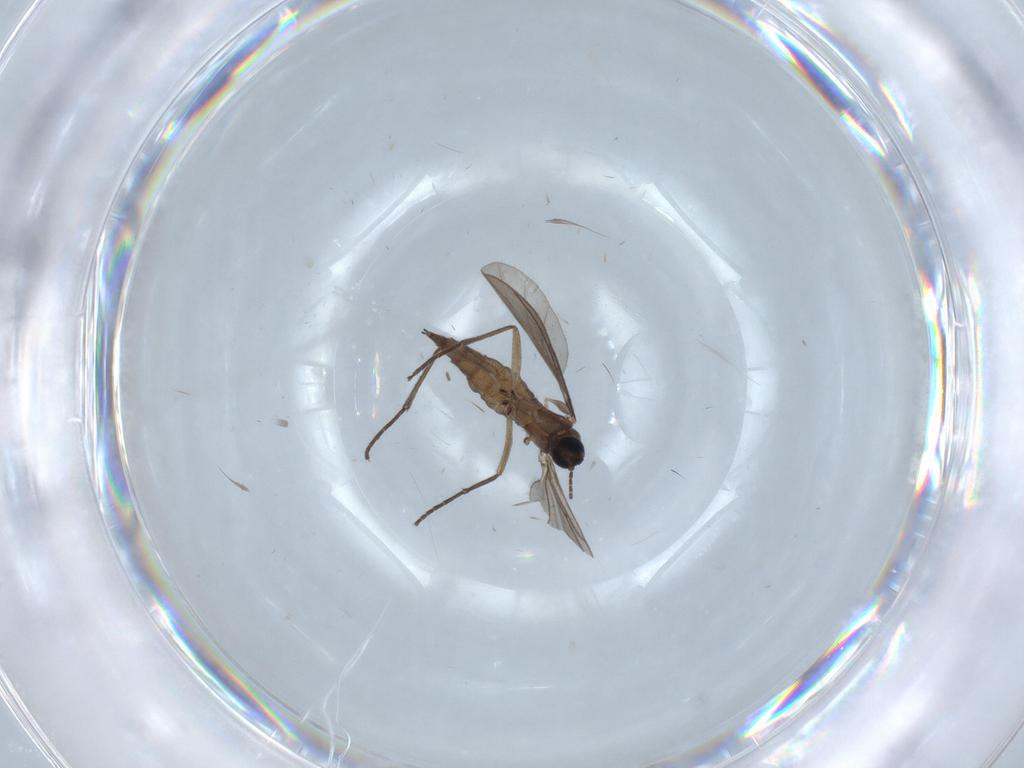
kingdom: Animalia
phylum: Arthropoda
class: Insecta
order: Diptera
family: Sciaridae
